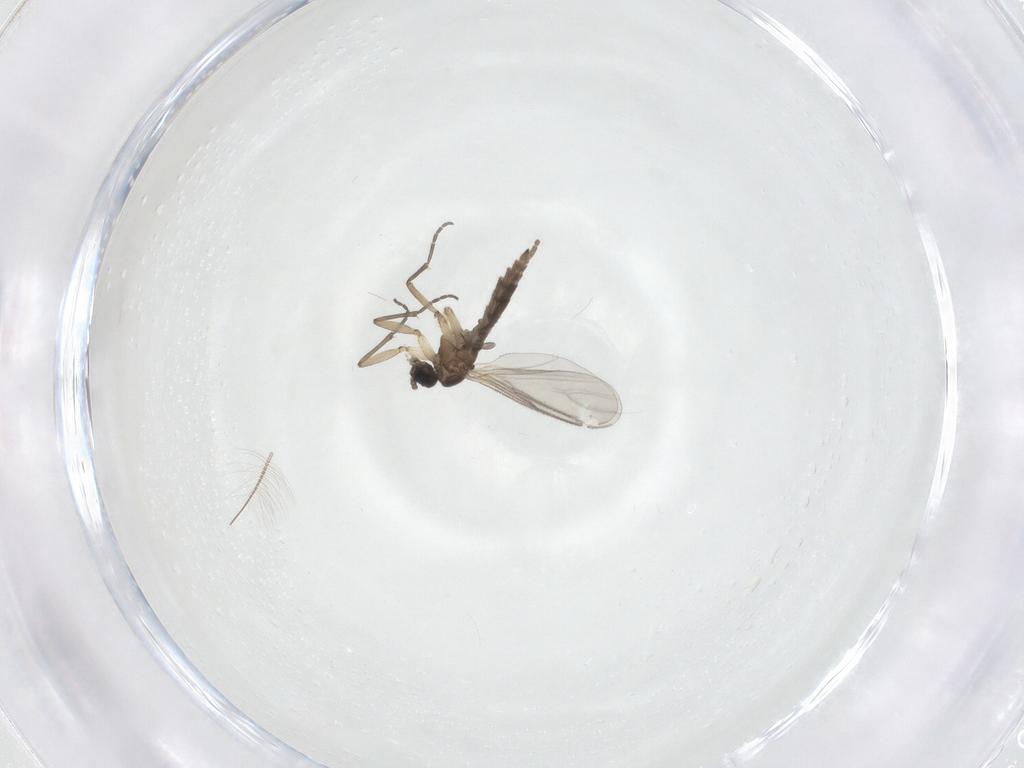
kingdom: Animalia
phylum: Arthropoda
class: Insecta
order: Diptera
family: Sciaridae
